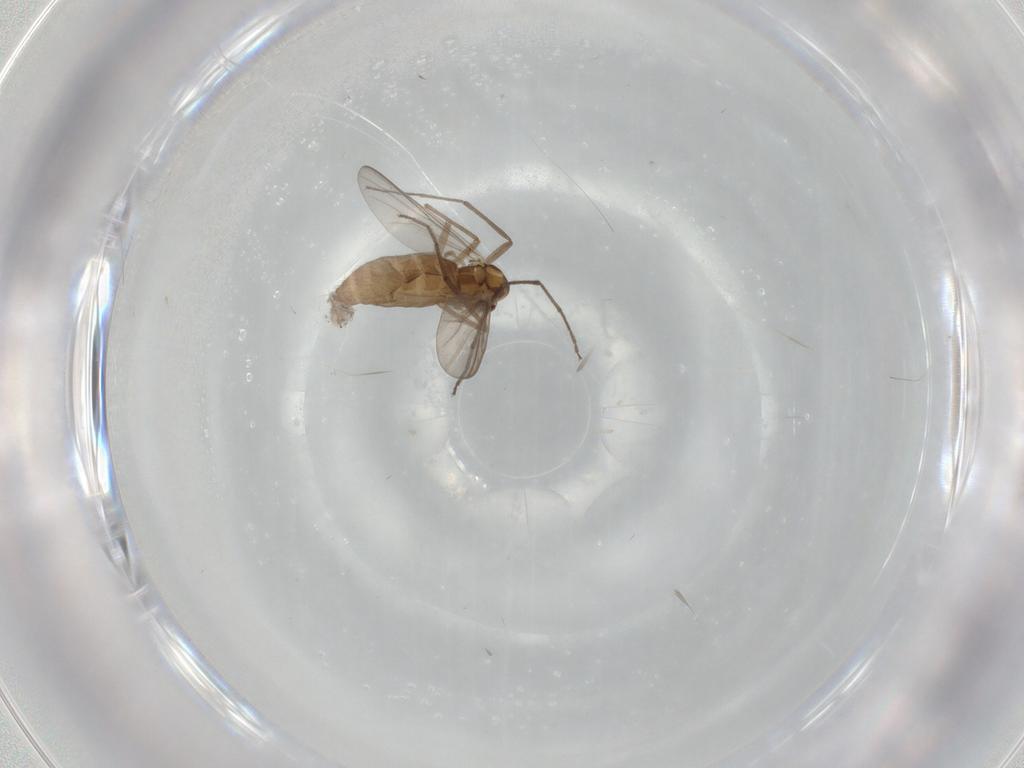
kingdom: Animalia
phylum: Arthropoda
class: Insecta
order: Diptera
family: Chironomidae
